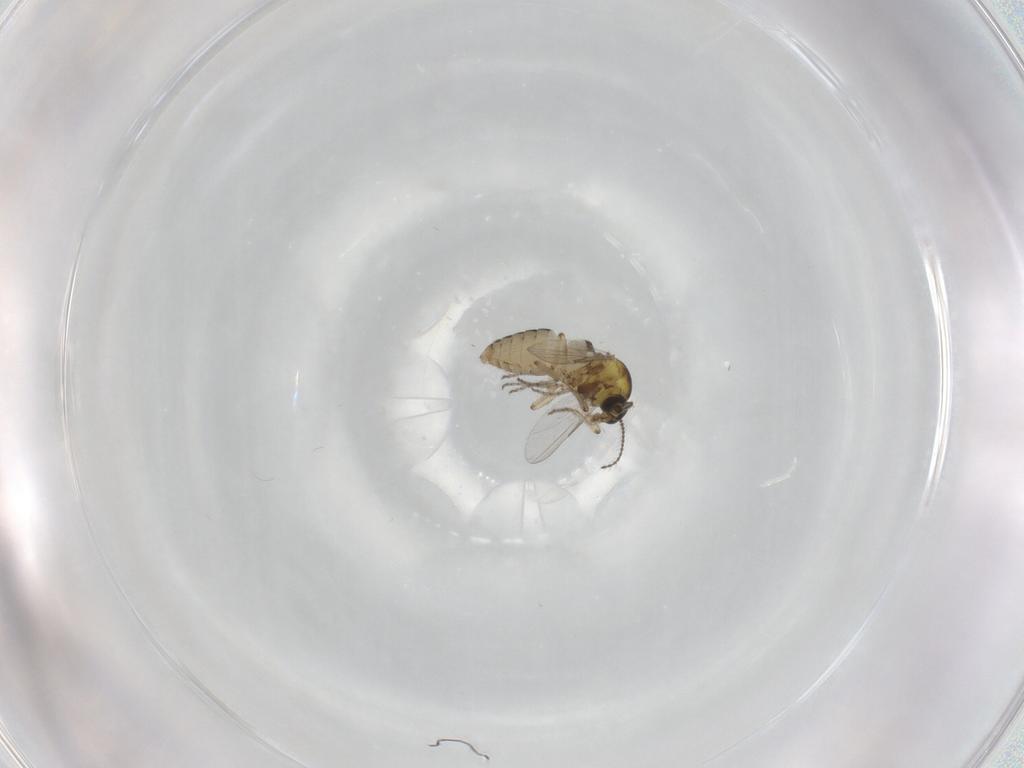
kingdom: Animalia
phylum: Arthropoda
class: Insecta
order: Diptera
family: Ceratopogonidae
